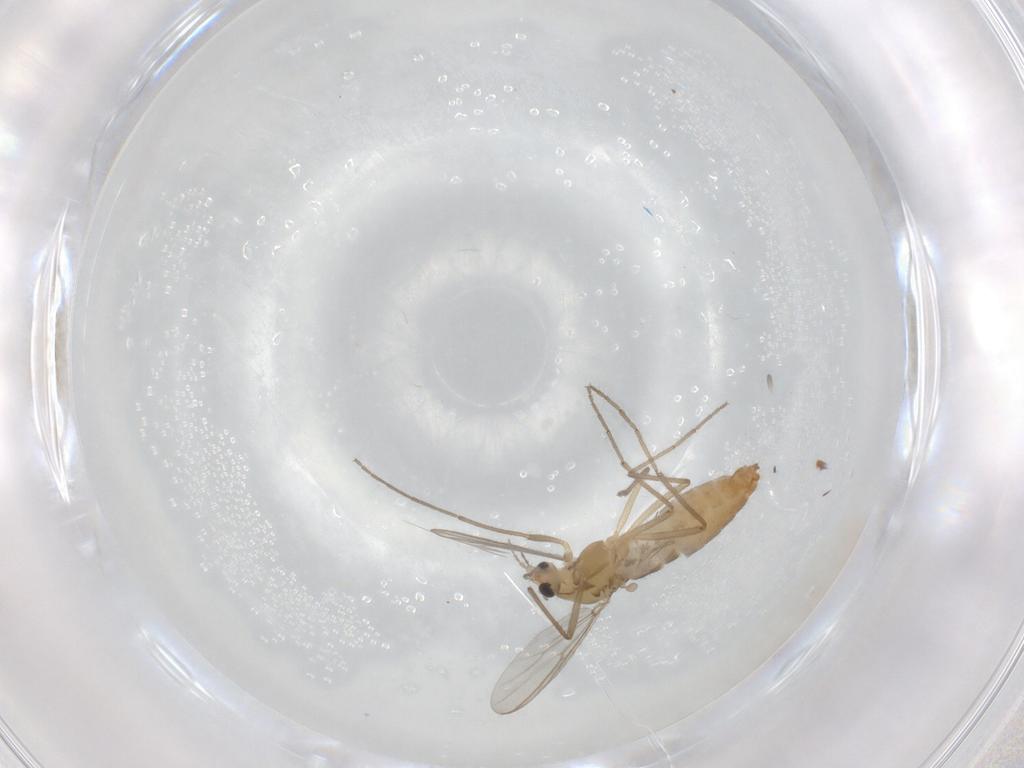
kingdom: Animalia
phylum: Arthropoda
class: Insecta
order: Diptera
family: Chironomidae
